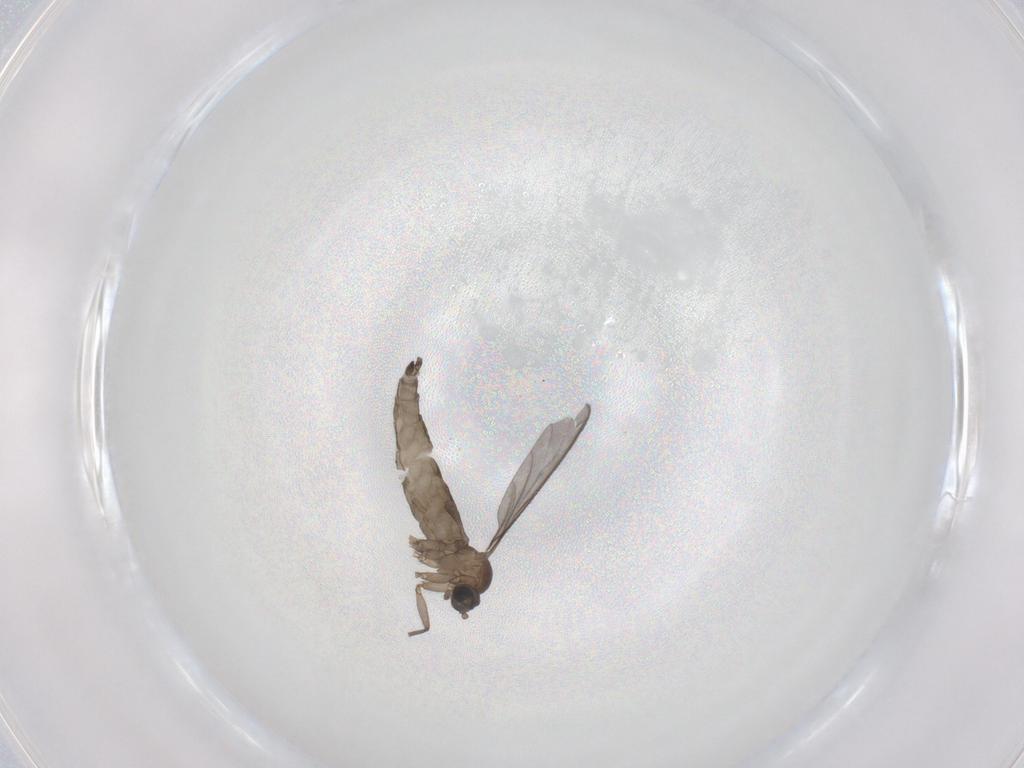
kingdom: Animalia
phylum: Arthropoda
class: Insecta
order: Diptera
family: Sciaridae
